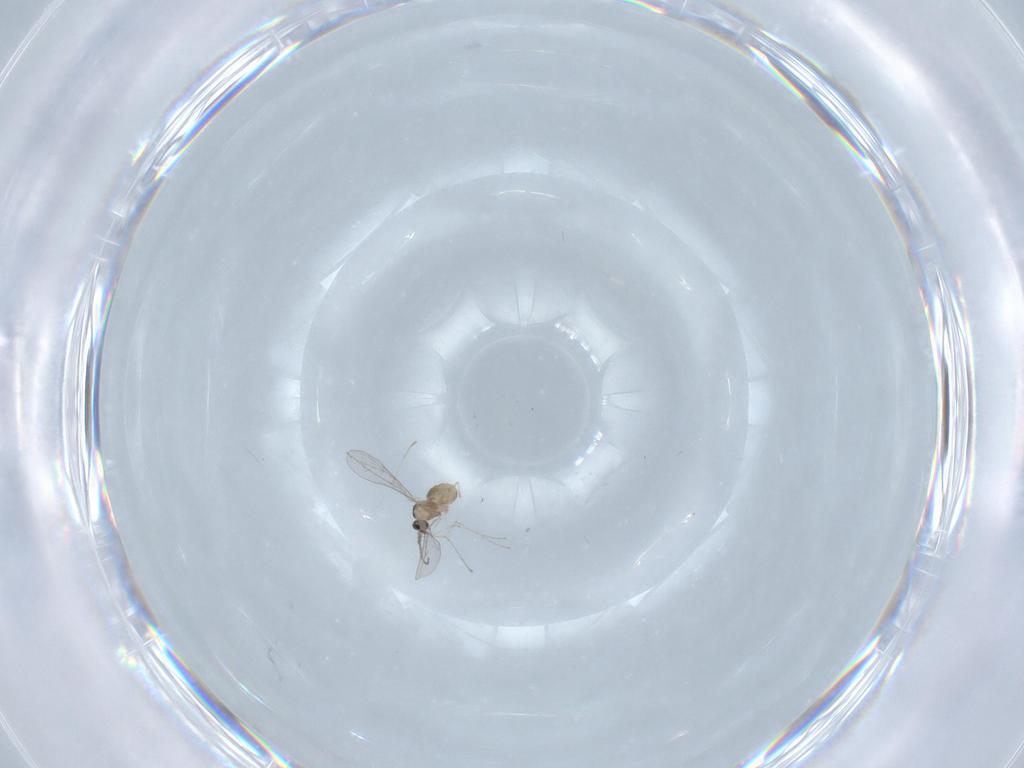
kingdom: Animalia
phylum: Arthropoda
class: Insecta
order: Diptera
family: Cecidomyiidae
